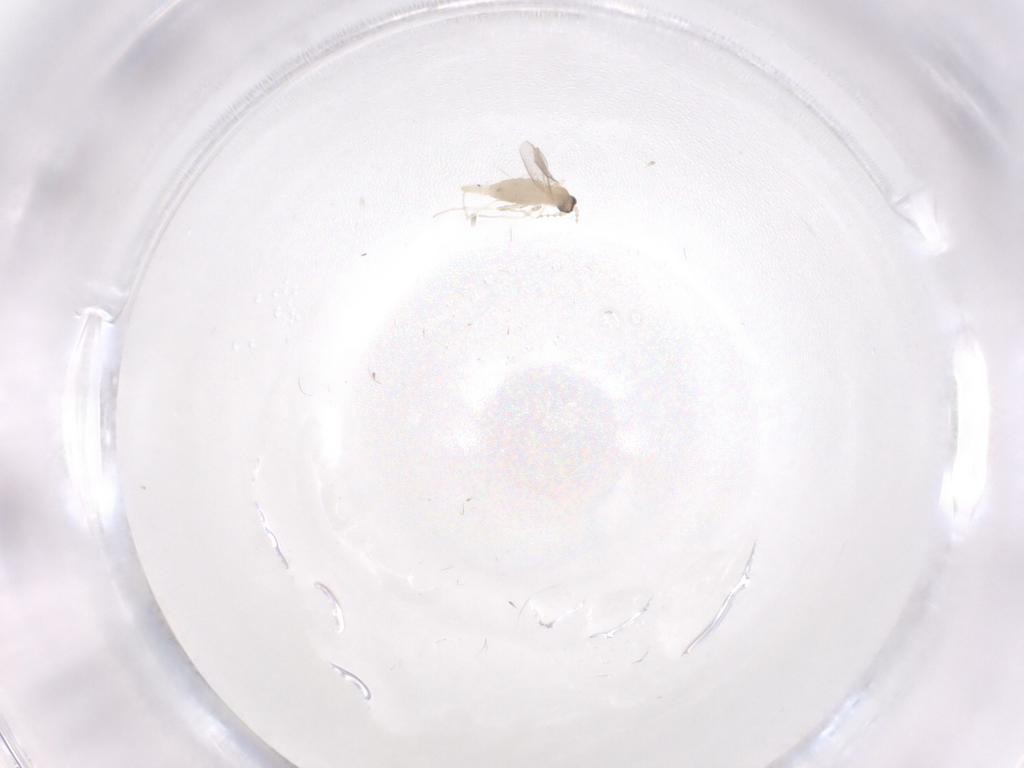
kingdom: Animalia
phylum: Arthropoda
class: Insecta
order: Diptera
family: Cecidomyiidae
